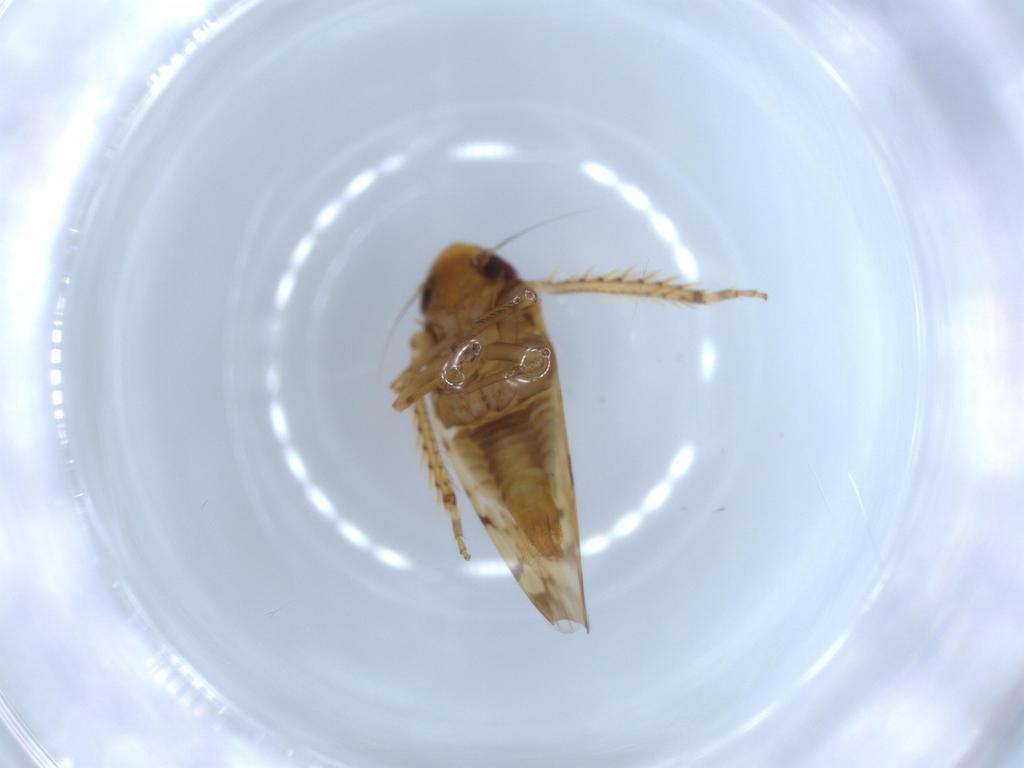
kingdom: Animalia
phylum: Arthropoda
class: Insecta
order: Hemiptera
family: Cicadellidae
